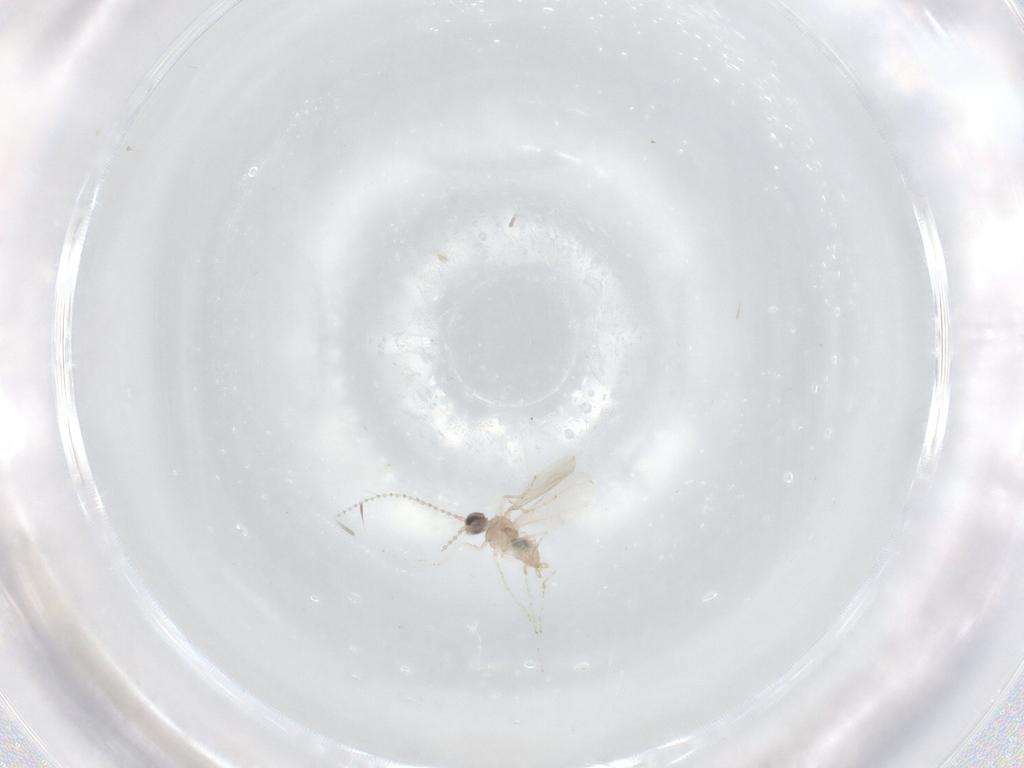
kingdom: Animalia
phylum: Arthropoda
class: Insecta
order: Diptera
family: Cecidomyiidae
